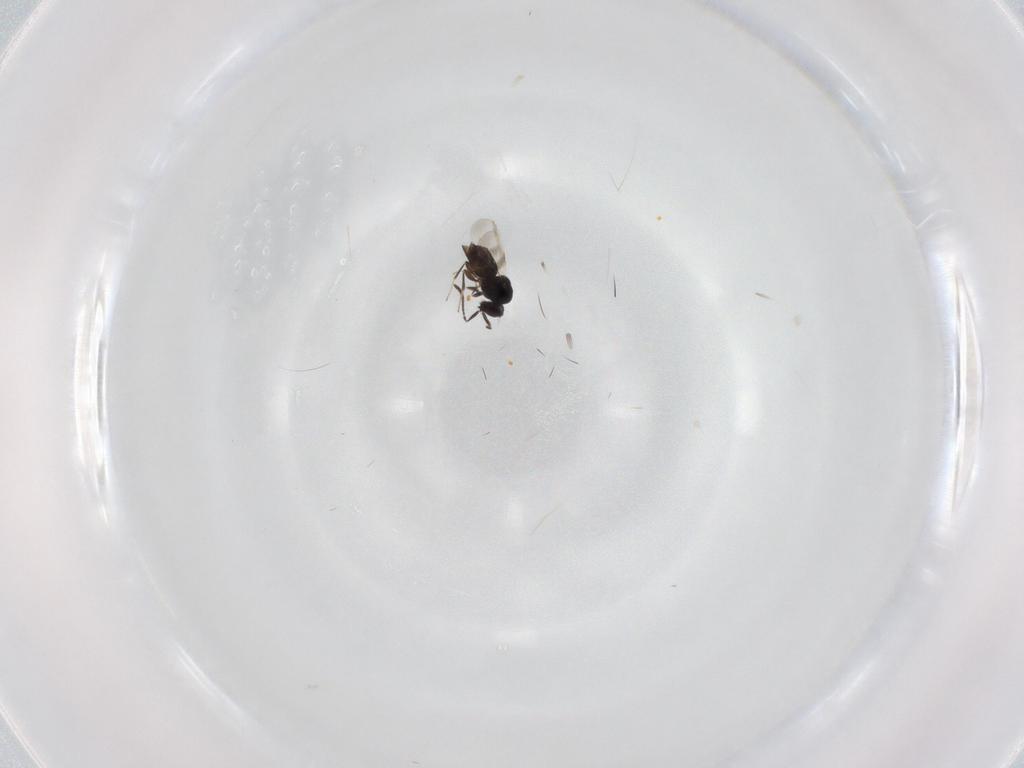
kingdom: Animalia
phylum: Arthropoda
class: Insecta
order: Hymenoptera
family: Ceraphronidae
